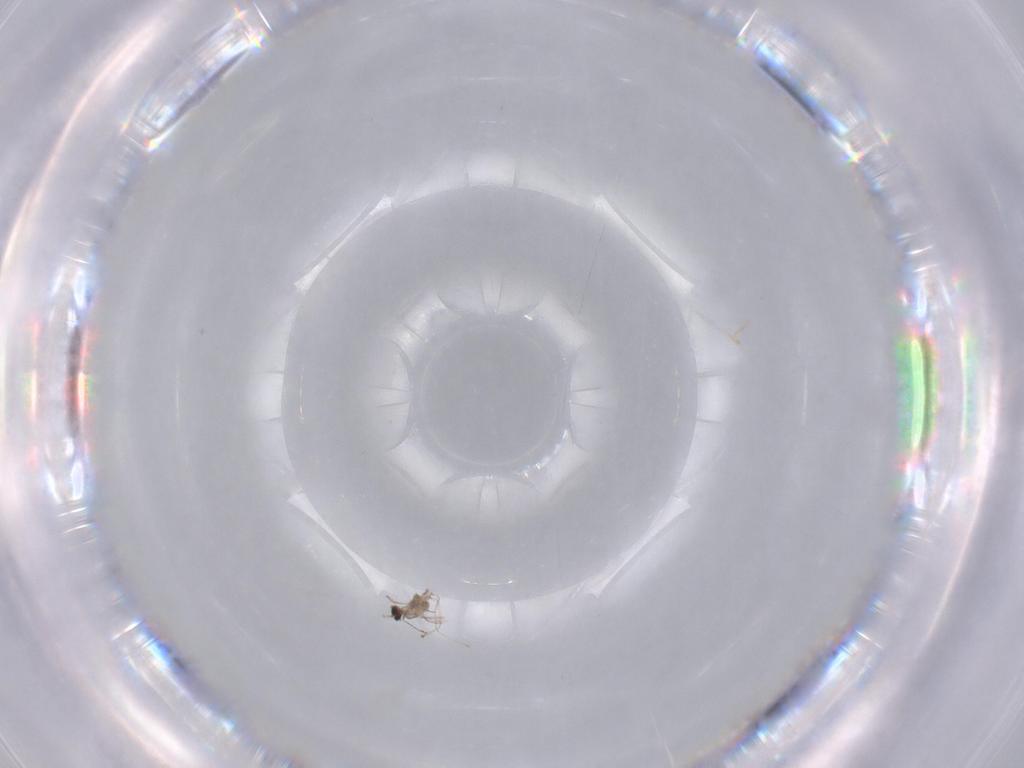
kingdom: Animalia
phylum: Arthropoda
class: Insecta
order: Diptera
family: Cecidomyiidae
